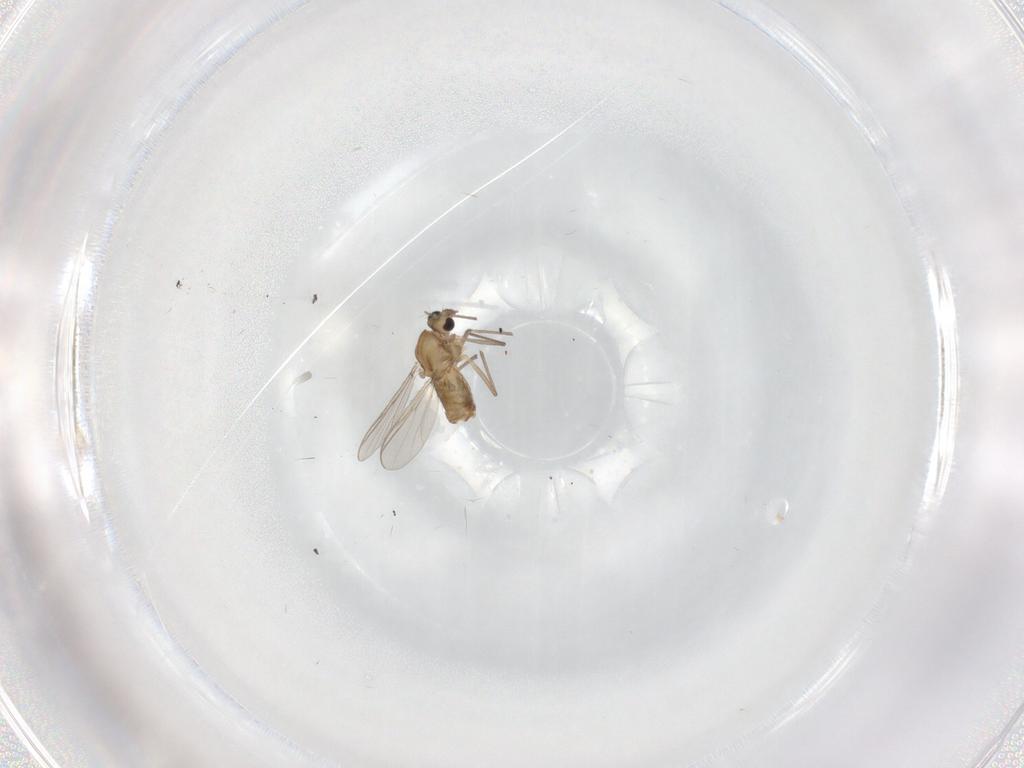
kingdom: Animalia
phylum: Arthropoda
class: Insecta
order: Diptera
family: Chironomidae
